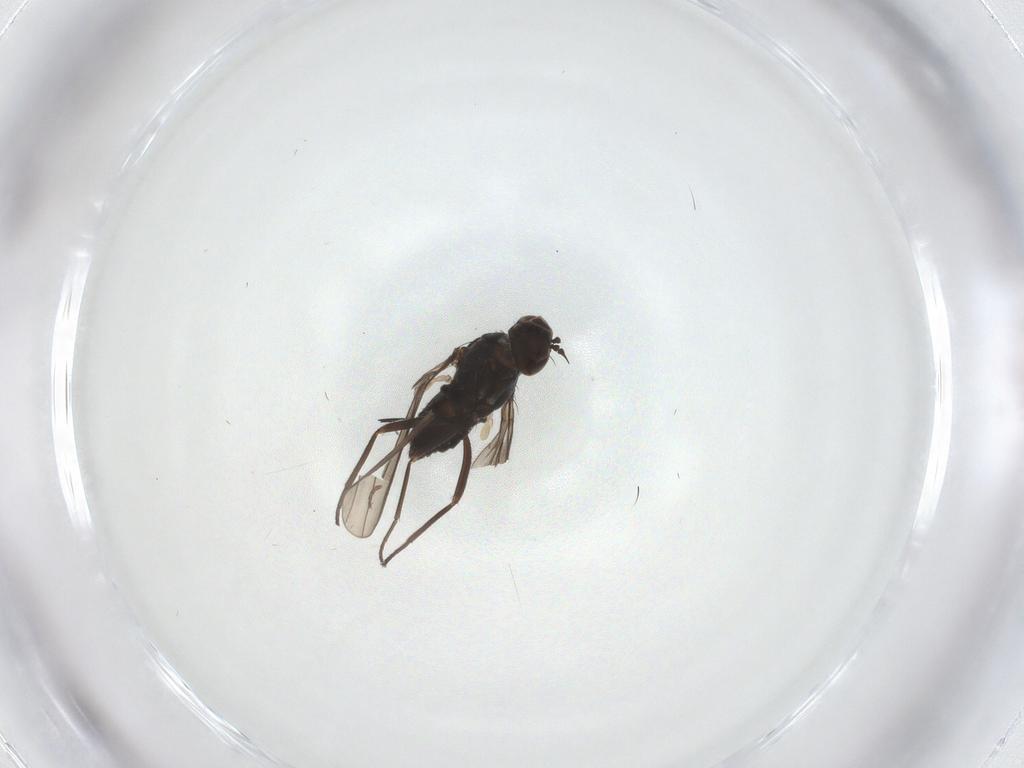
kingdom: Animalia
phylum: Arthropoda
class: Insecta
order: Diptera
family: Dolichopodidae
